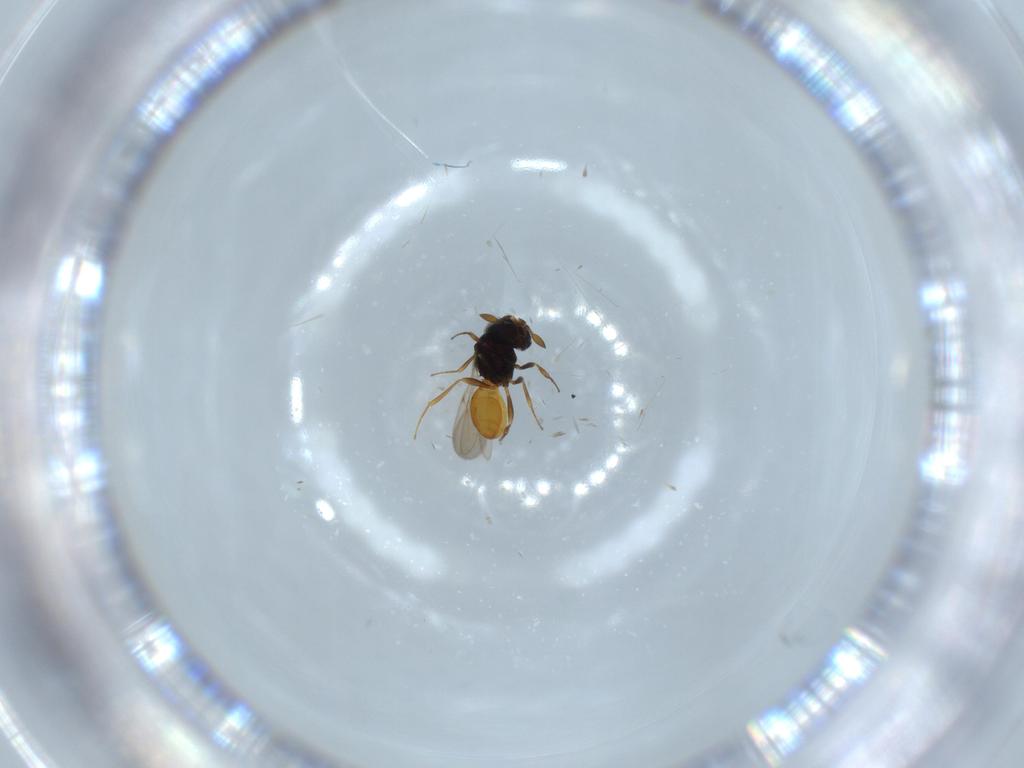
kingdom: Animalia
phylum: Arthropoda
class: Insecta
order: Hymenoptera
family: Scelionidae
